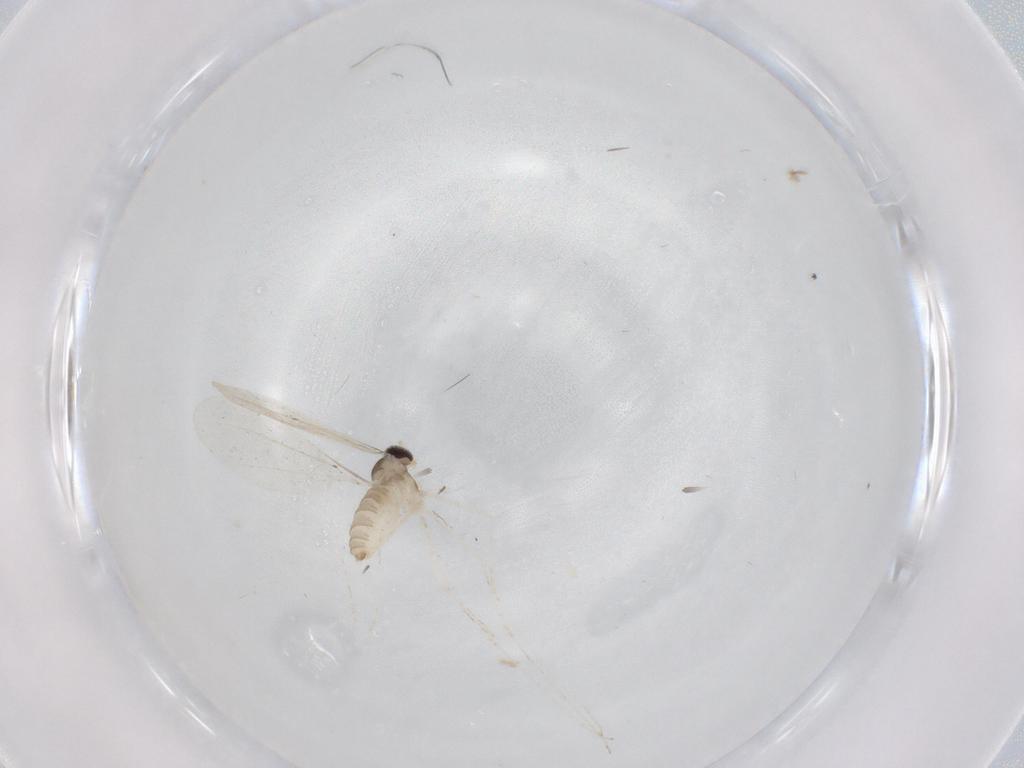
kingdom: Animalia
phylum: Arthropoda
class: Insecta
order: Diptera
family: Cecidomyiidae
